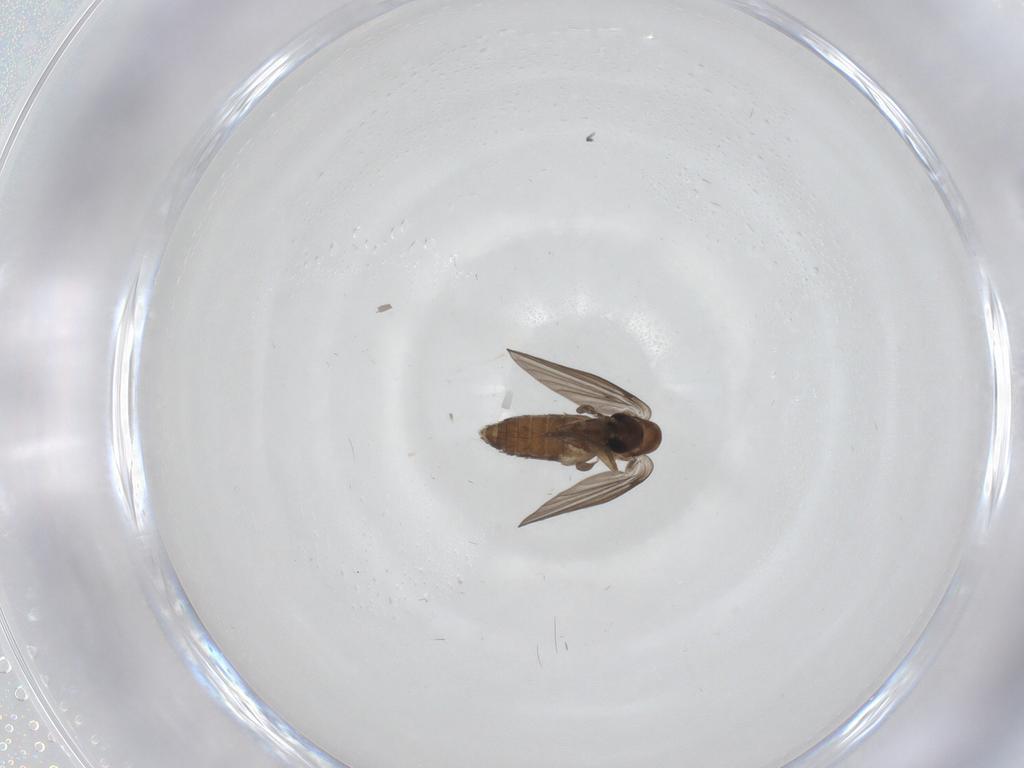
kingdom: Animalia
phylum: Arthropoda
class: Insecta
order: Diptera
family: Psychodidae
